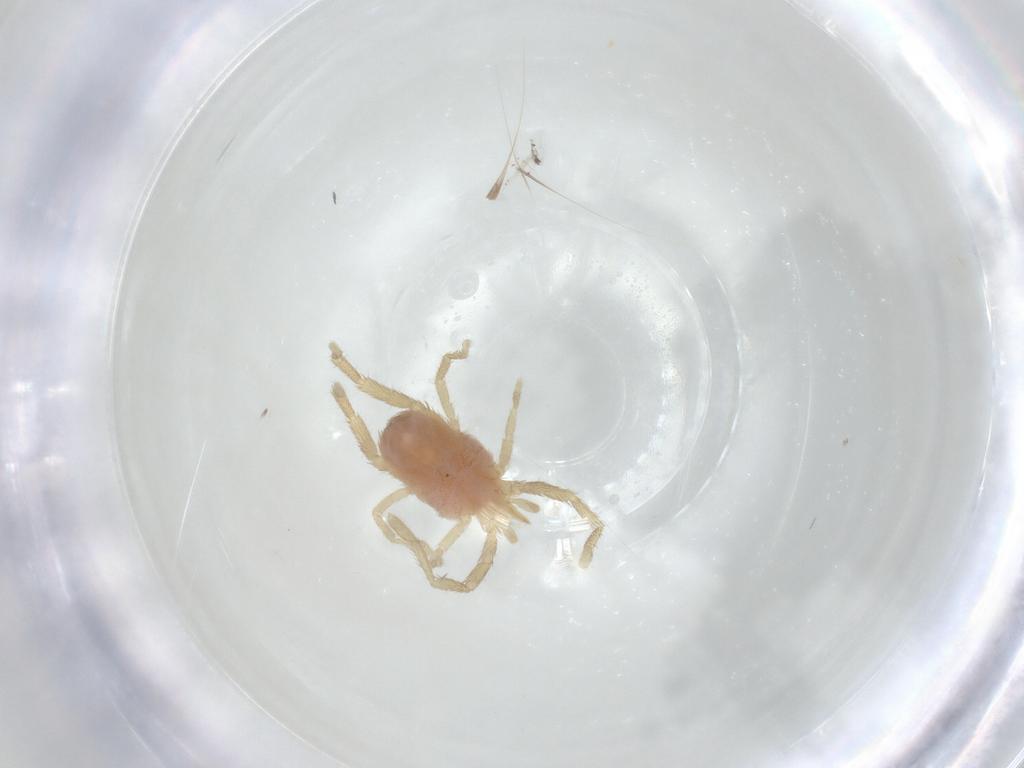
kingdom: Animalia
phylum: Arthropoda
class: Arachnida
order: Trombidiformes
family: Erythraeidae
